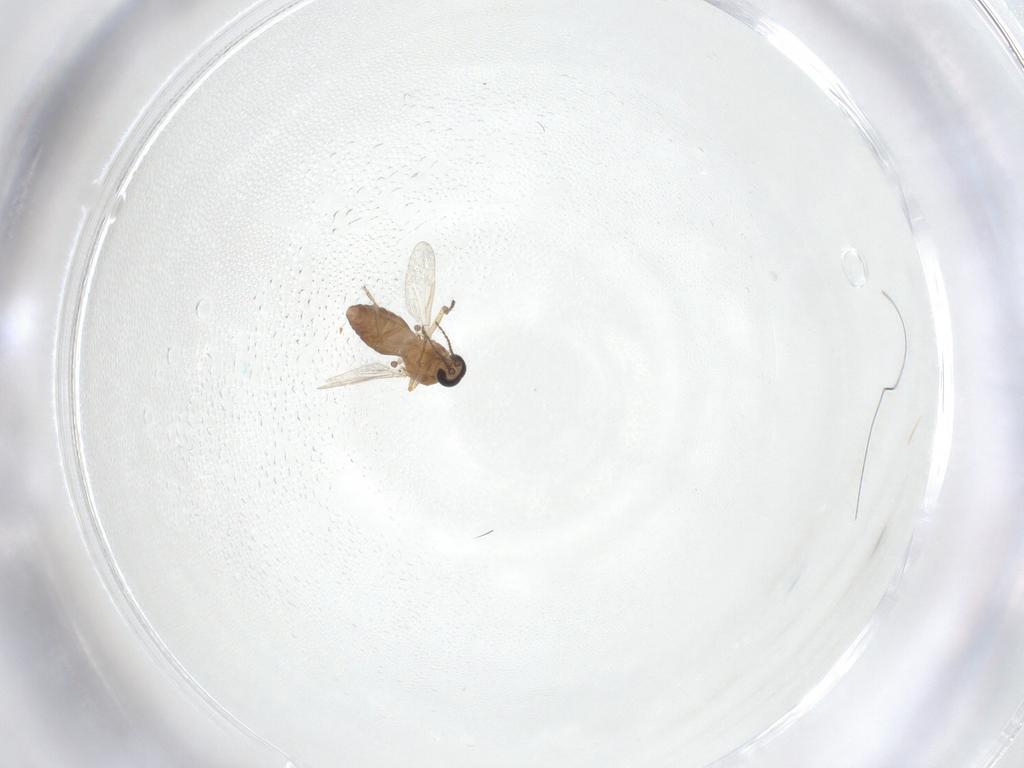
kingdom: Animalia
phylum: Arthropoda
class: Insecta
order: Diptera
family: Ceratopogonidae
